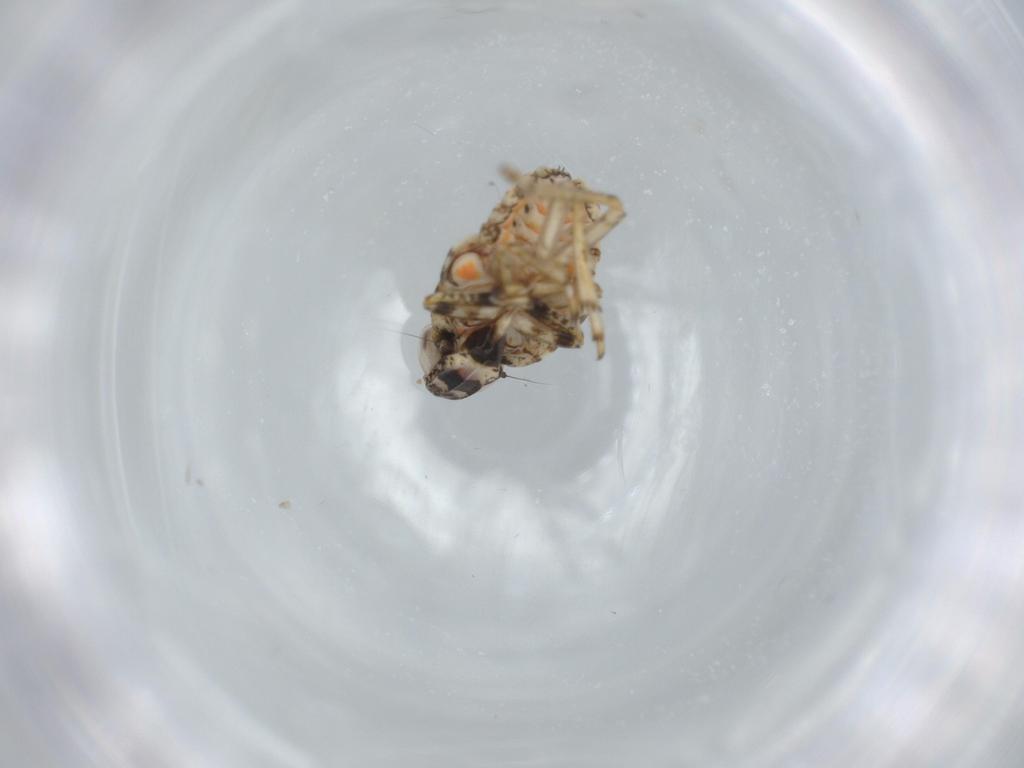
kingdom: Animalia
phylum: Arthropoda
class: Insecta
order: Hemiptera
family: Issidae
